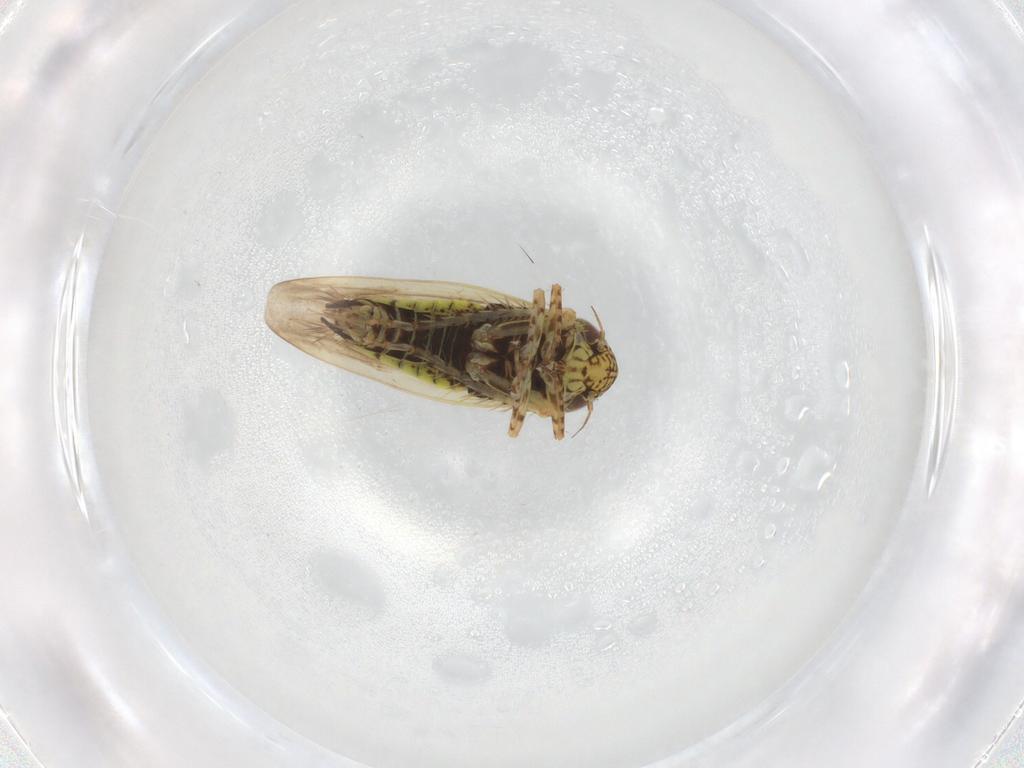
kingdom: Animalia
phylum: Arthropoda
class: Insecta
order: Hemiptera
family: Cicadellidae
